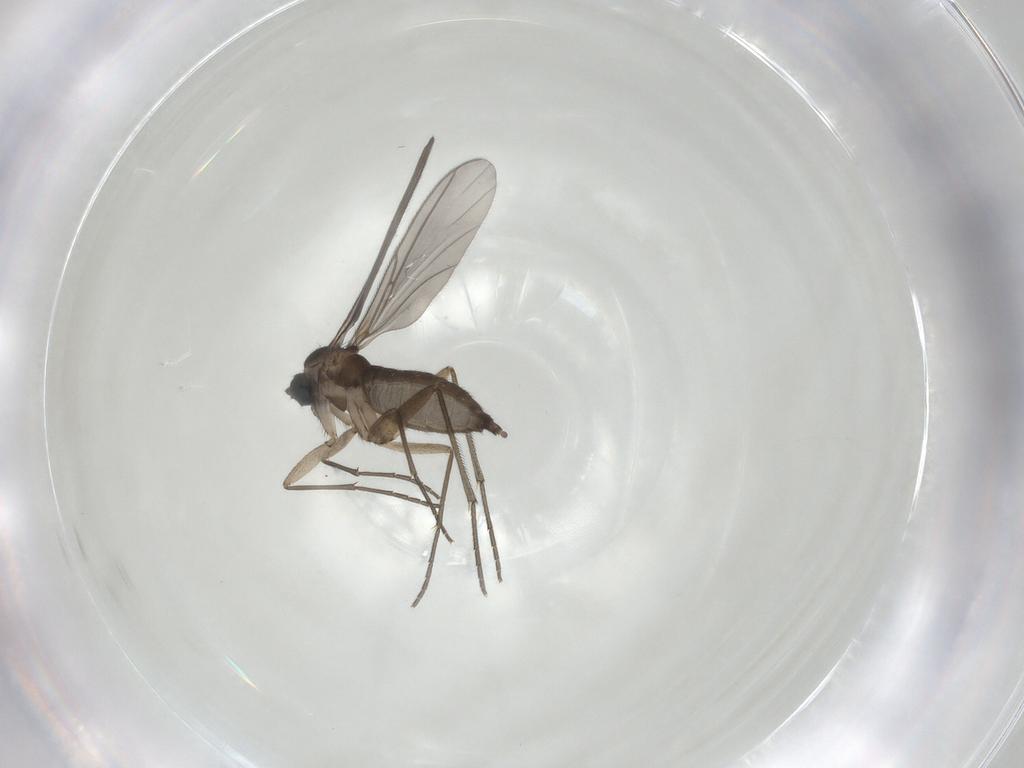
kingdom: Animalia
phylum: Arthropoda
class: Insecta
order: Diptera
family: Sciaridae
